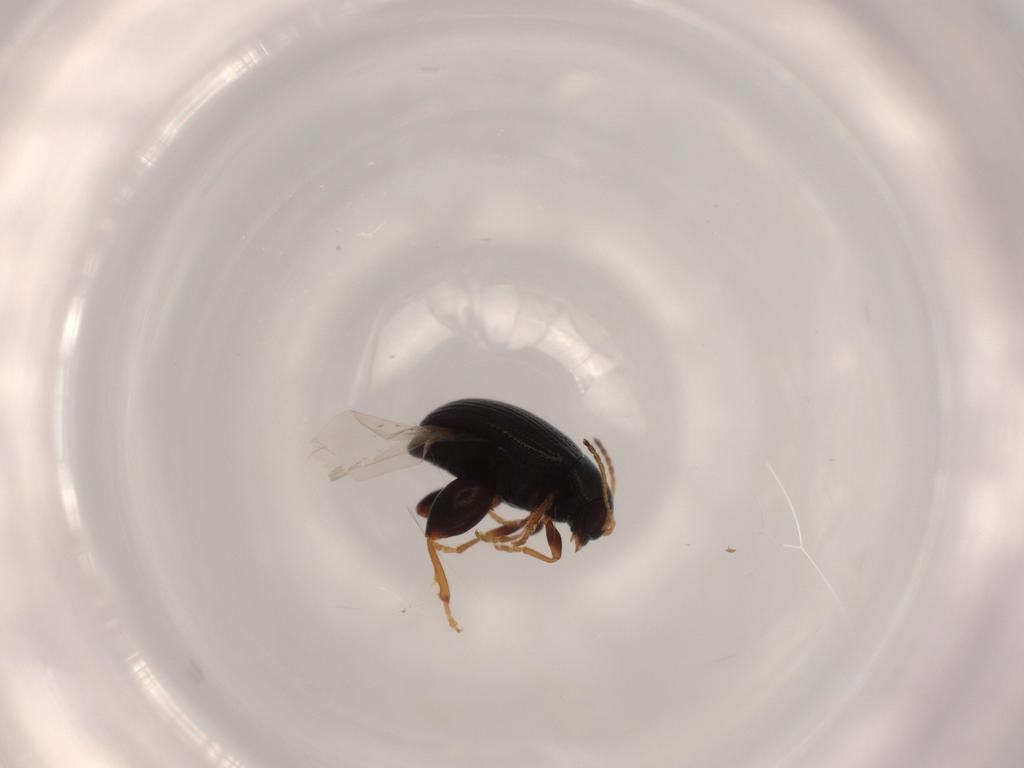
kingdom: Animalia
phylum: Arthropoda
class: Insecta
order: Coleoptera
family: Chrysomelidae
